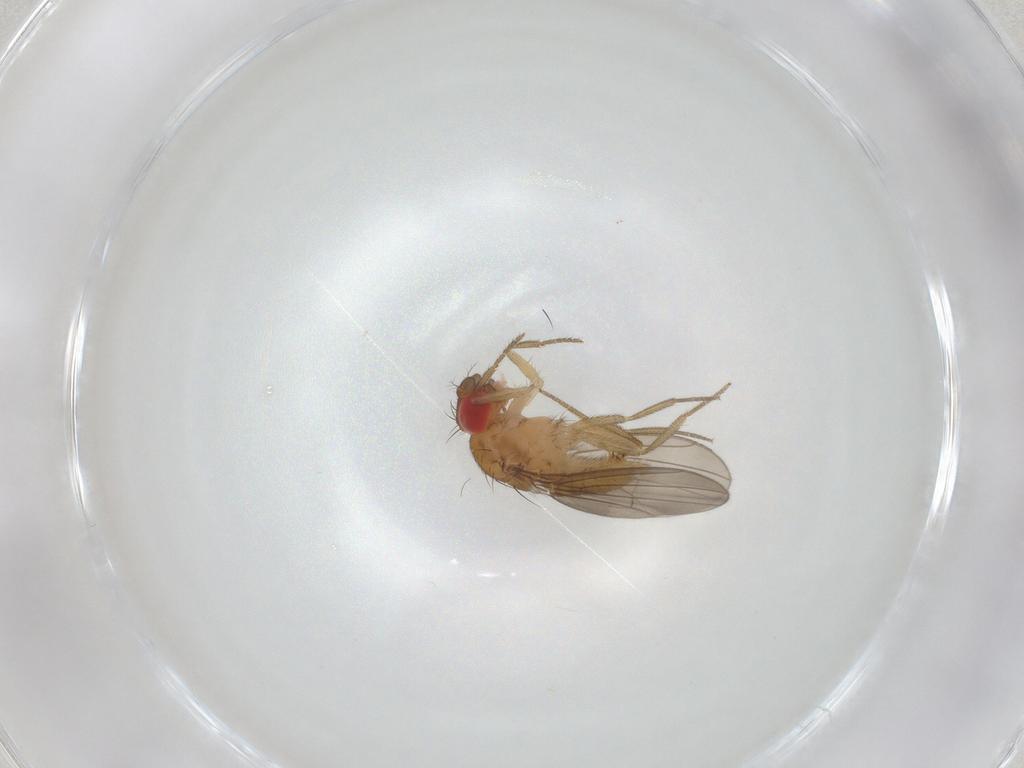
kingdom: Animalia
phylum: Arthropoda
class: Insecta
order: Diptera
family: Drosophilidae
